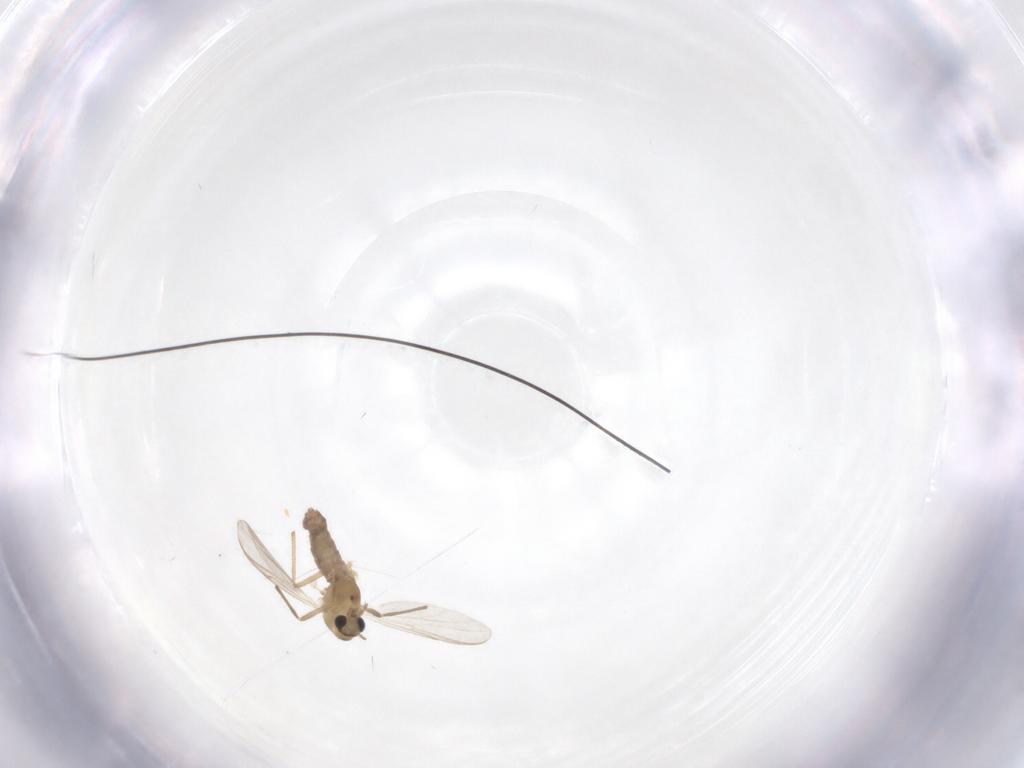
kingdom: Animalia
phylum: Arthropoda
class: Insecta
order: Diptera
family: Chironomidae
